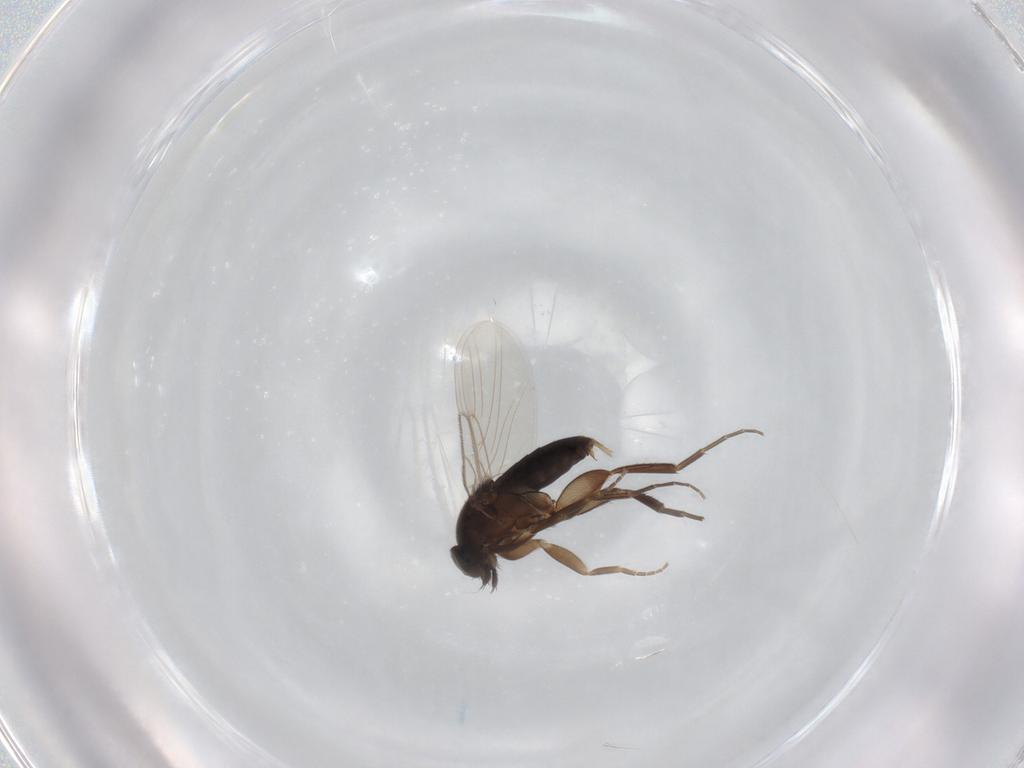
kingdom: Animalia
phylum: Arthropoda
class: Insecta
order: Diptera
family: Phoridae
